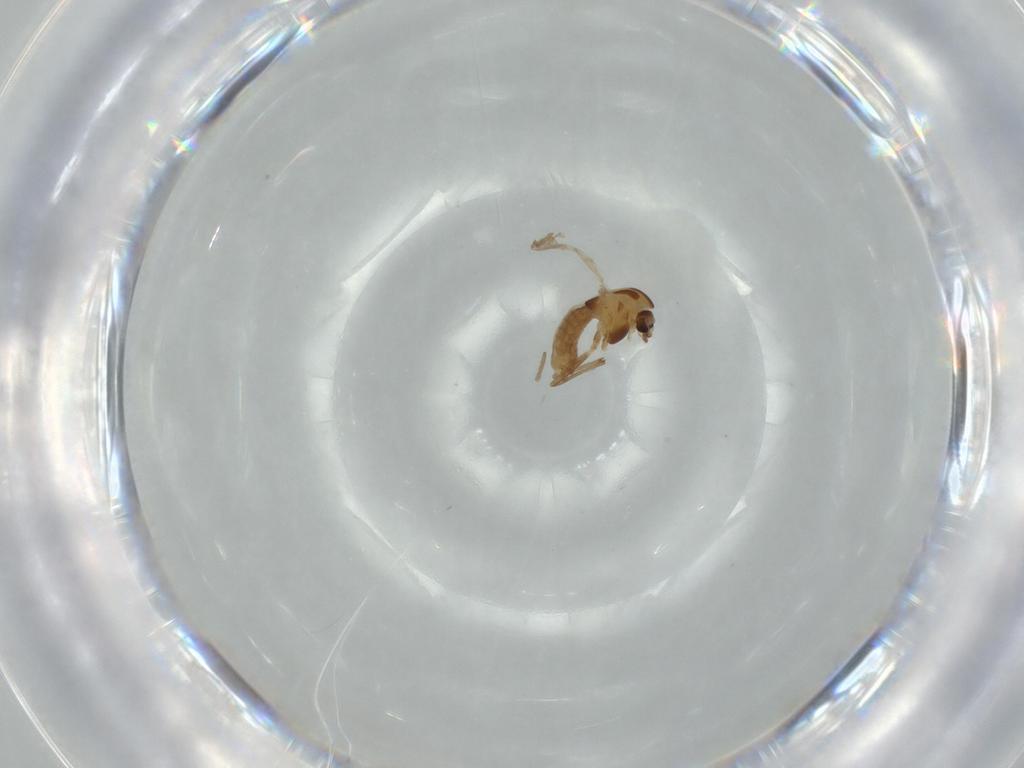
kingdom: Animalia
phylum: Arthropoda
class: Insecta
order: Diptera
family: Chironomidae
